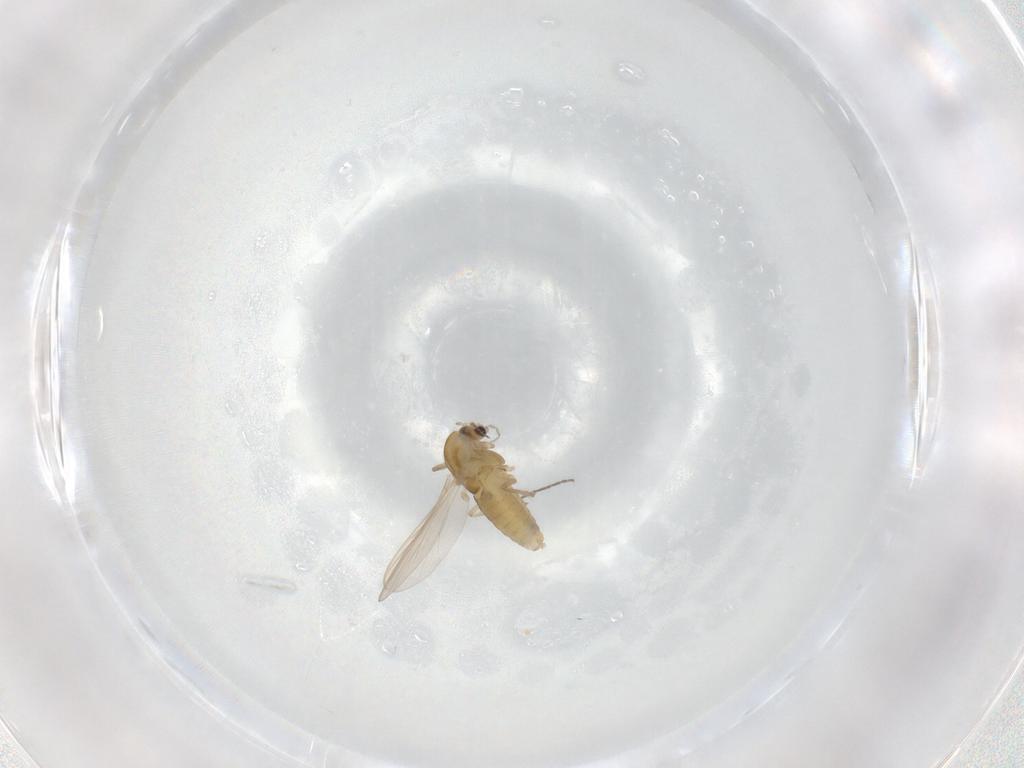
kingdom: Animalia
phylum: Arthropoda
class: Insecta
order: Diptera
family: Chironomidae
